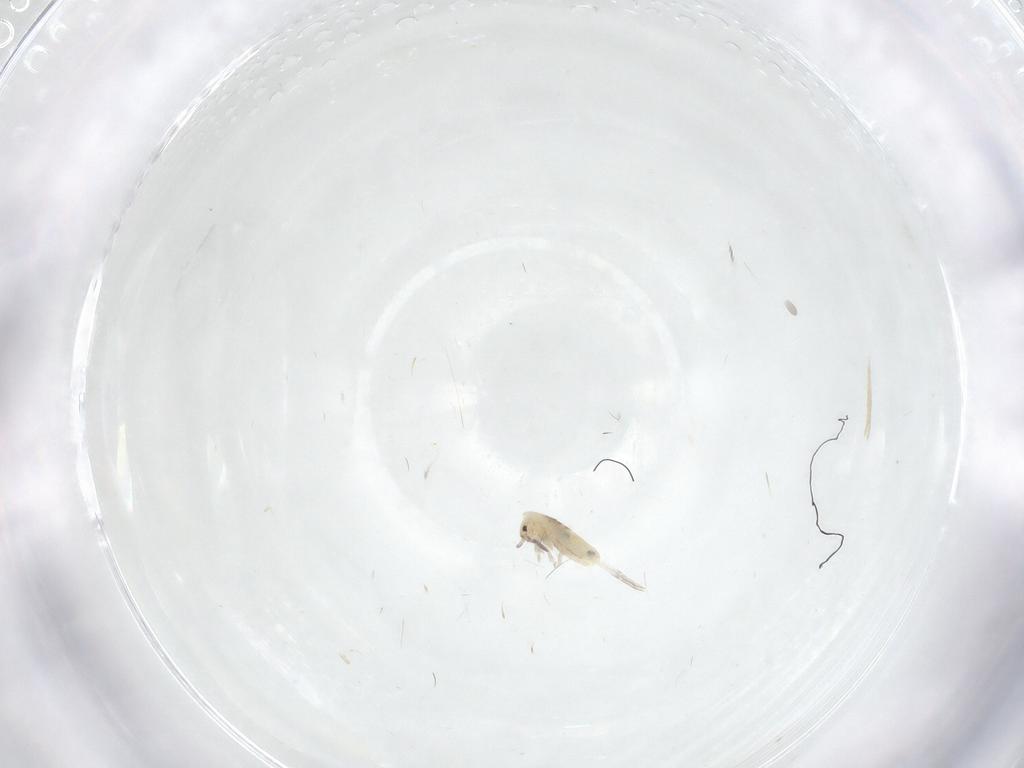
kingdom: Animalia
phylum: Arthropoda
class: Collembola
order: Entomobryomorpha
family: Entomobryidae
